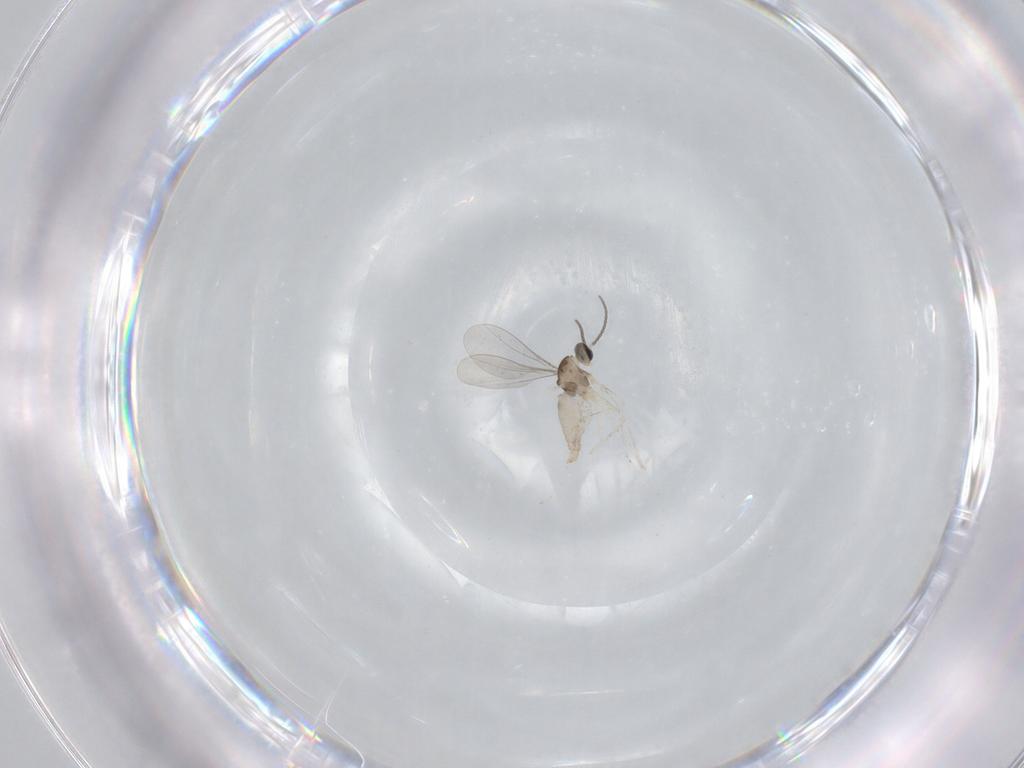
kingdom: Animalia
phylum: Arthropoda
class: Insecta
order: Diptera
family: Cecidomyiidae
